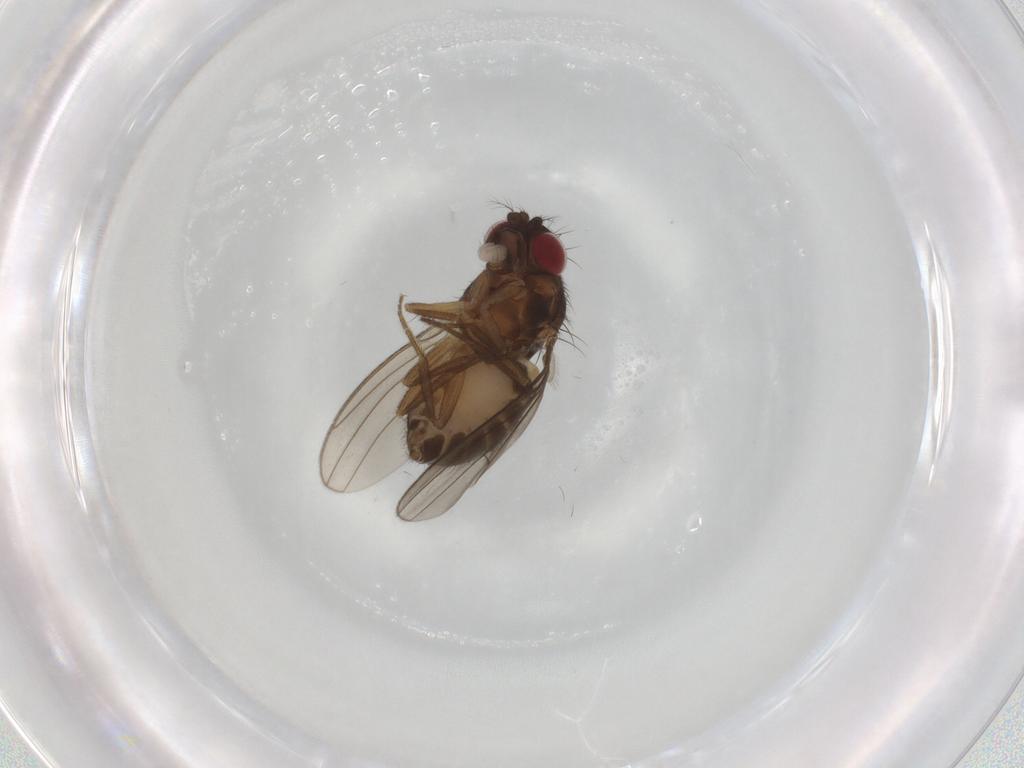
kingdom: Animalia
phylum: Arthropoda
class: Insecta
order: Diptera
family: Drosophilidae
